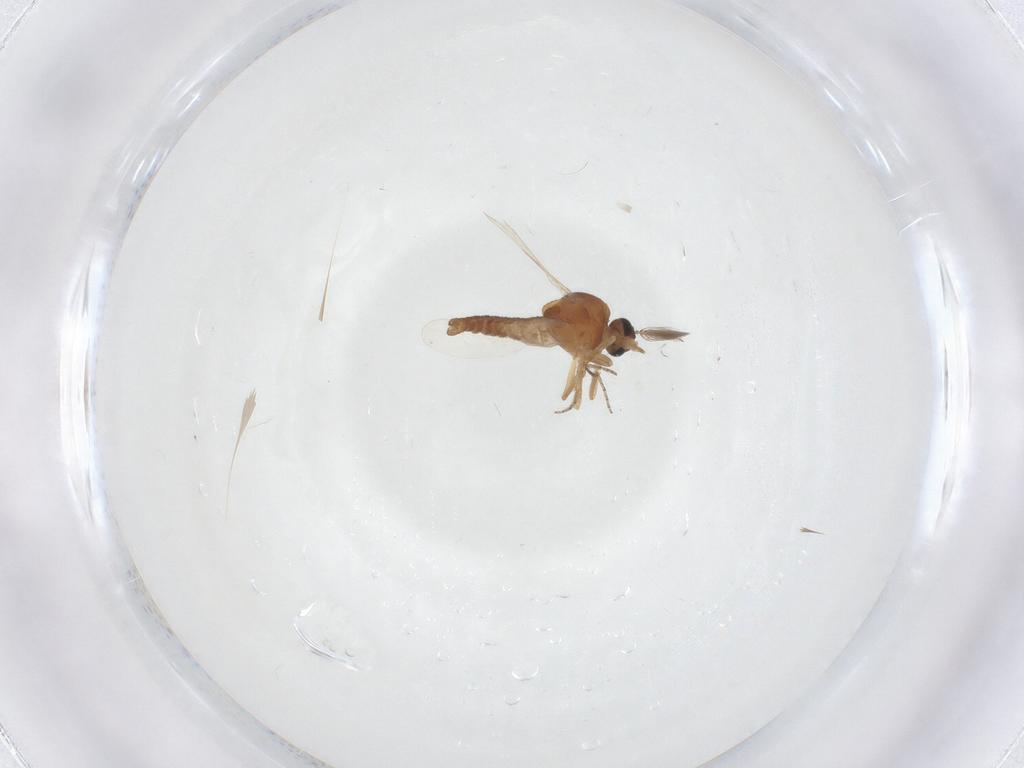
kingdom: Animalia
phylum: Arthropoda
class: Insecta
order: Diptera
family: Ceratopogonidae
